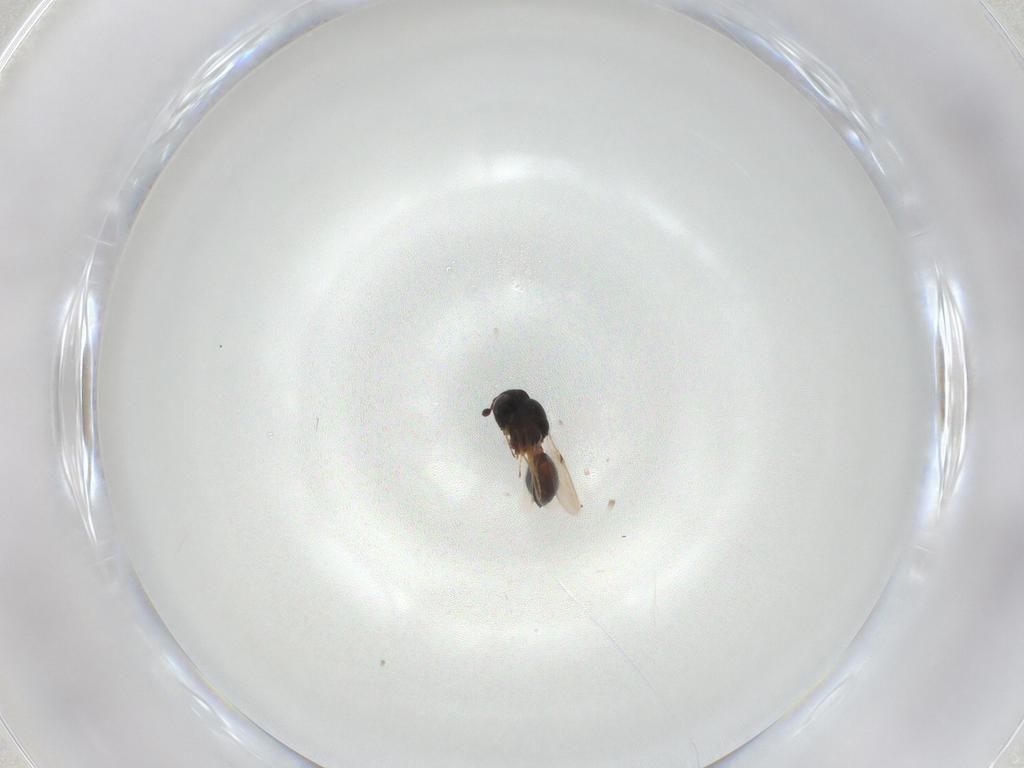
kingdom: Animalia
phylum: Arthropoda
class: Arachnida
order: Araneae
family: Pholcidae
